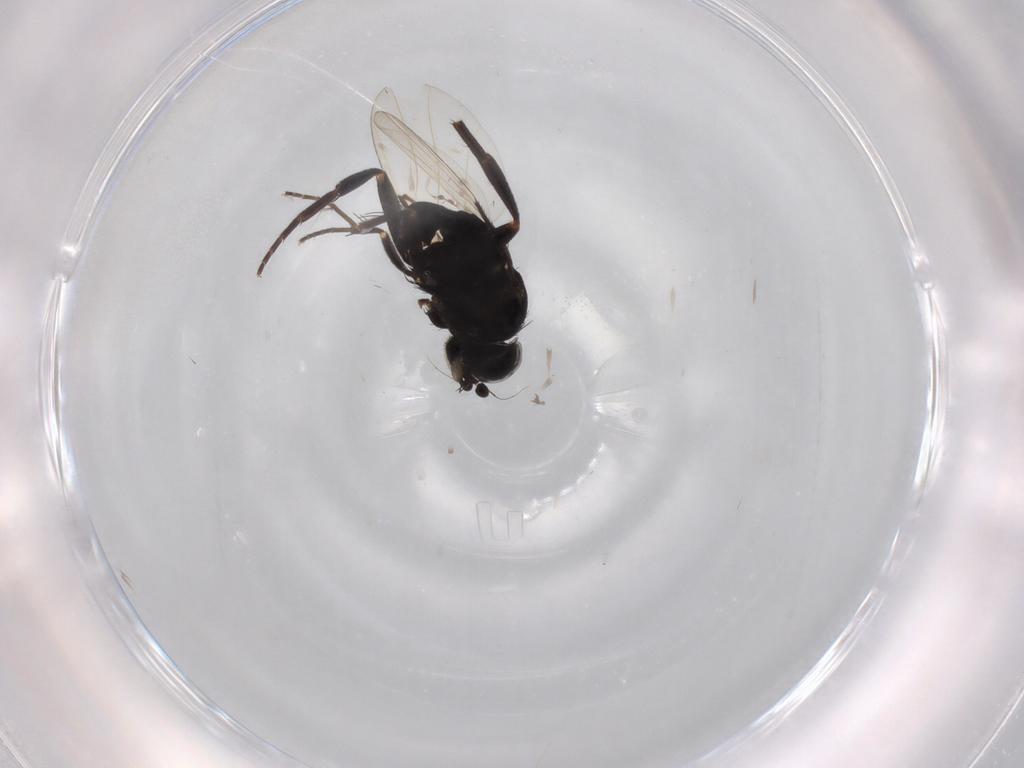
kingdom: Animalia
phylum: Arthropoda
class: Insecta
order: Diptera
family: Phoridae
